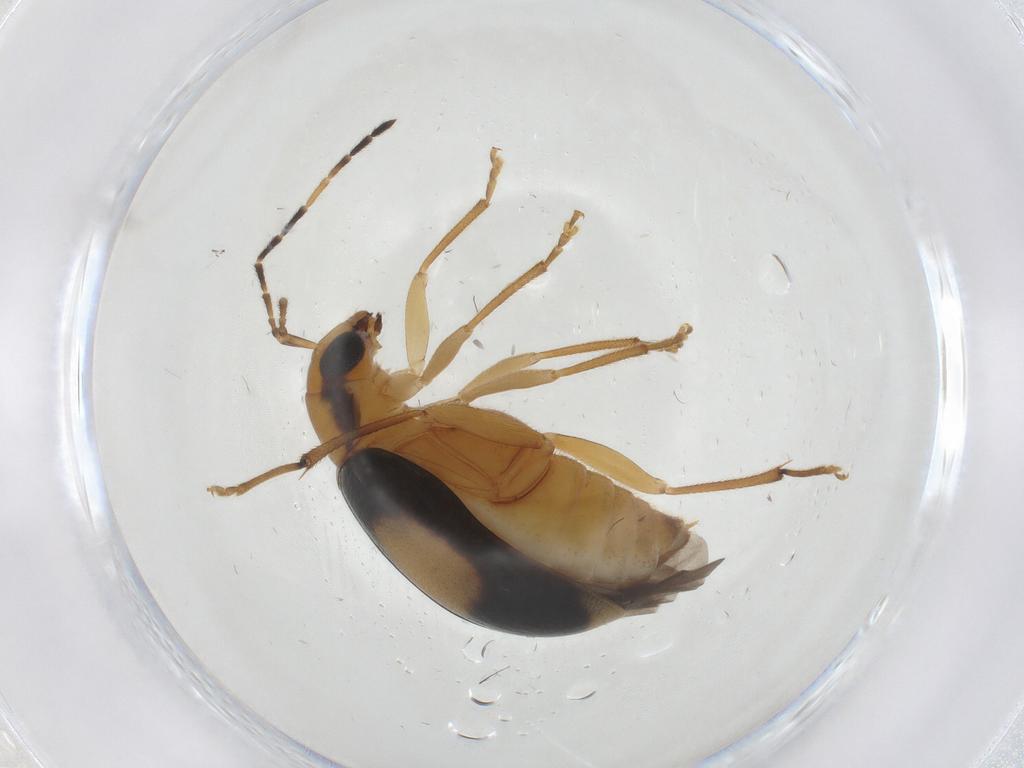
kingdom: Animalia
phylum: Arthropoda
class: Insecta
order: Coleoptera
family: Chrysomelidae
